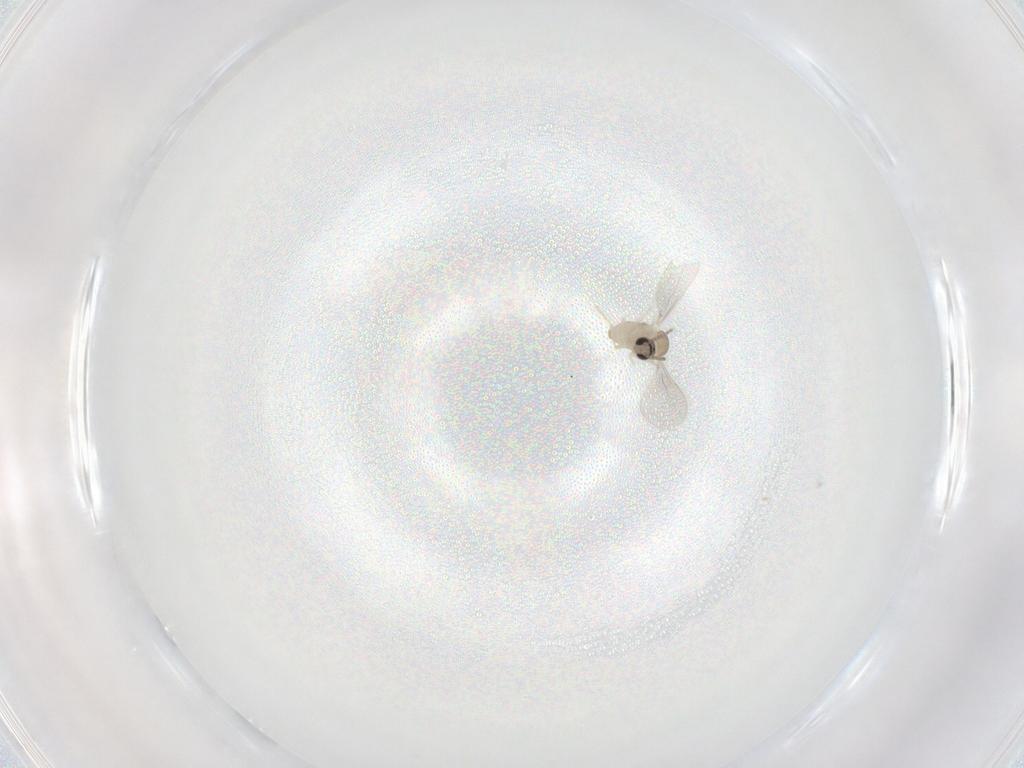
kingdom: Animalia
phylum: Arthropoda
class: Insecta
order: Diptera
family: Cecidomyiidae
